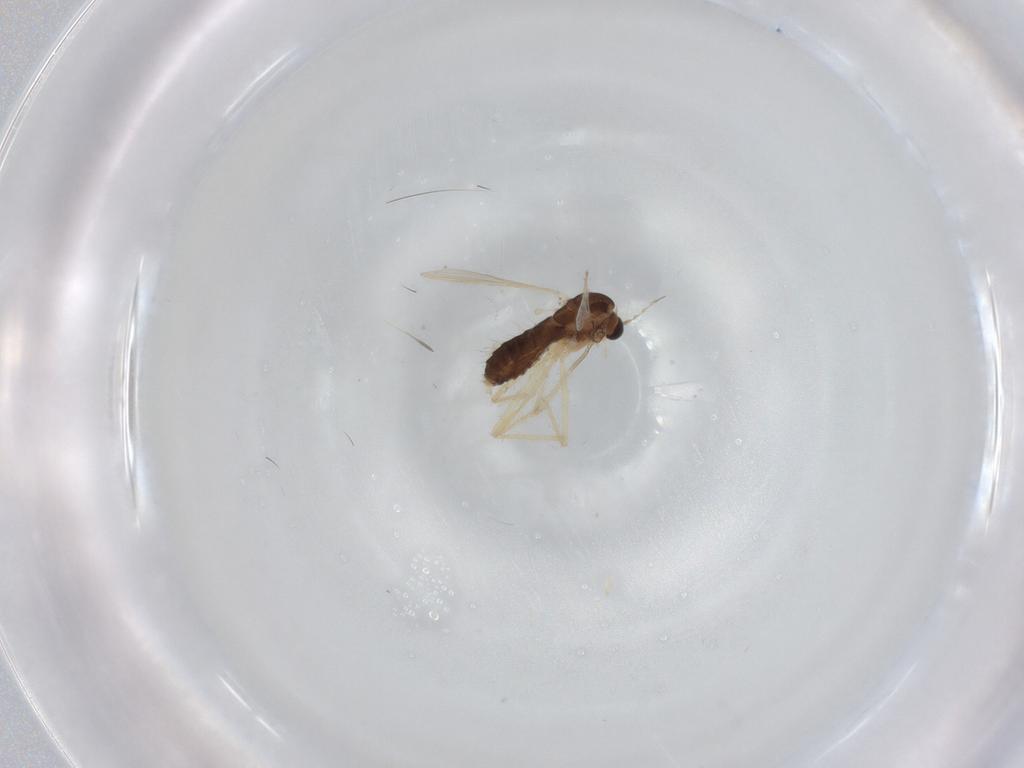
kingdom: Animalia
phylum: Arthropoda
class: Insecta
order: Diptera
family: Chironomidae
